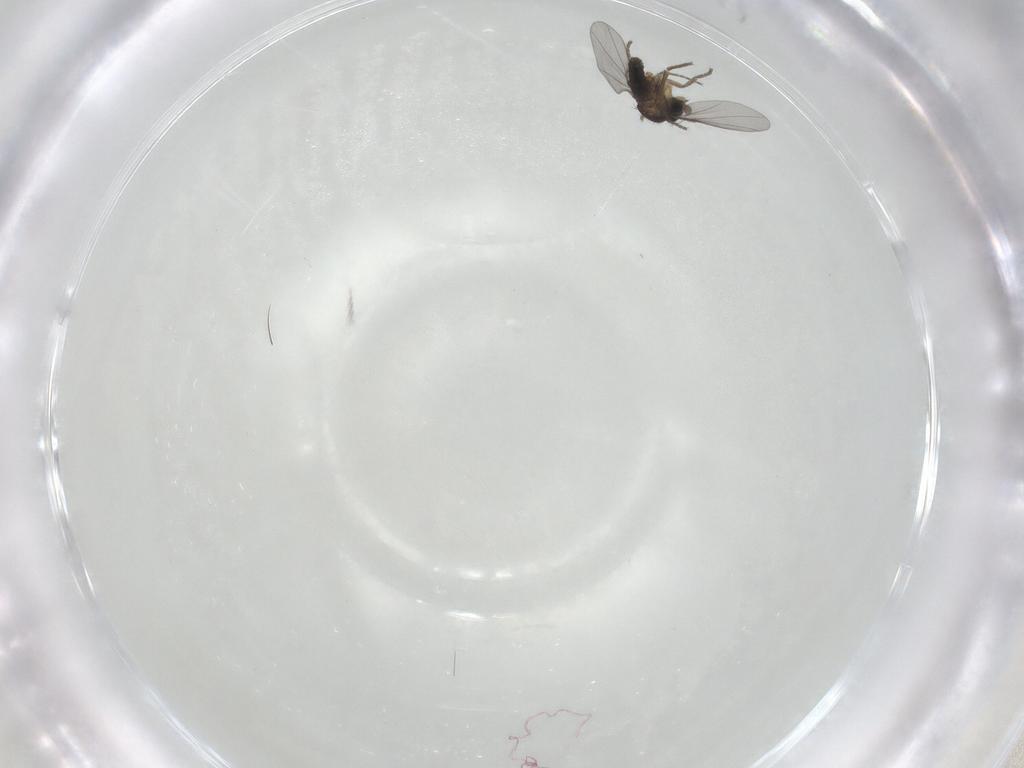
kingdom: Animalia
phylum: Arthropoda
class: Insecta
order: Diptera
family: Phoridae
